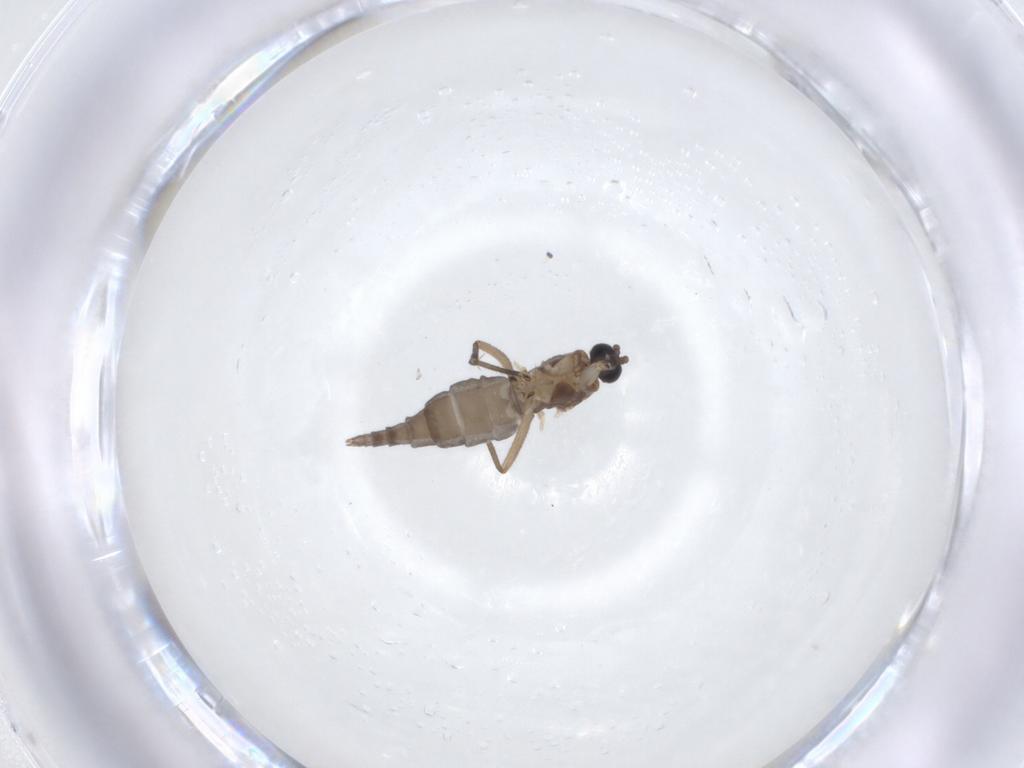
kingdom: Animalia
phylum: Arthropoda
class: Insecta
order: Diptera
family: Sciaridae
